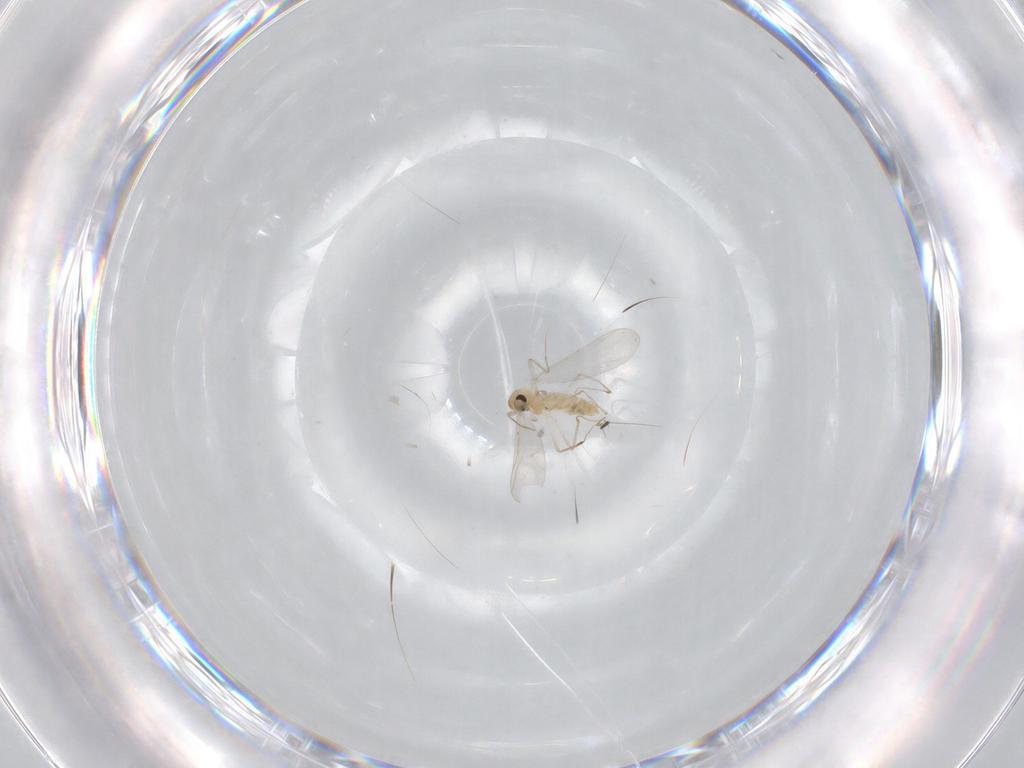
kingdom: Animalia
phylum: Arthropoda
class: Insecta
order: Diptera
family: Chironomidae
